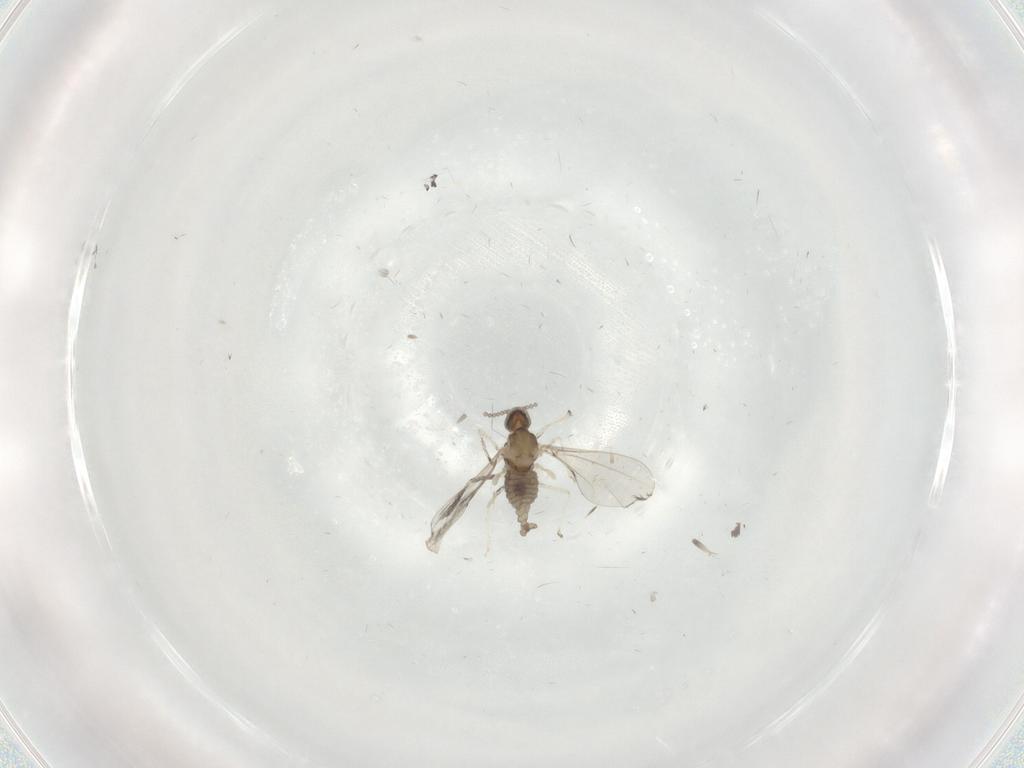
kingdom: Animalia
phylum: Arthropoda
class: Insecta
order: Diptera
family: Cecidomyiidae
